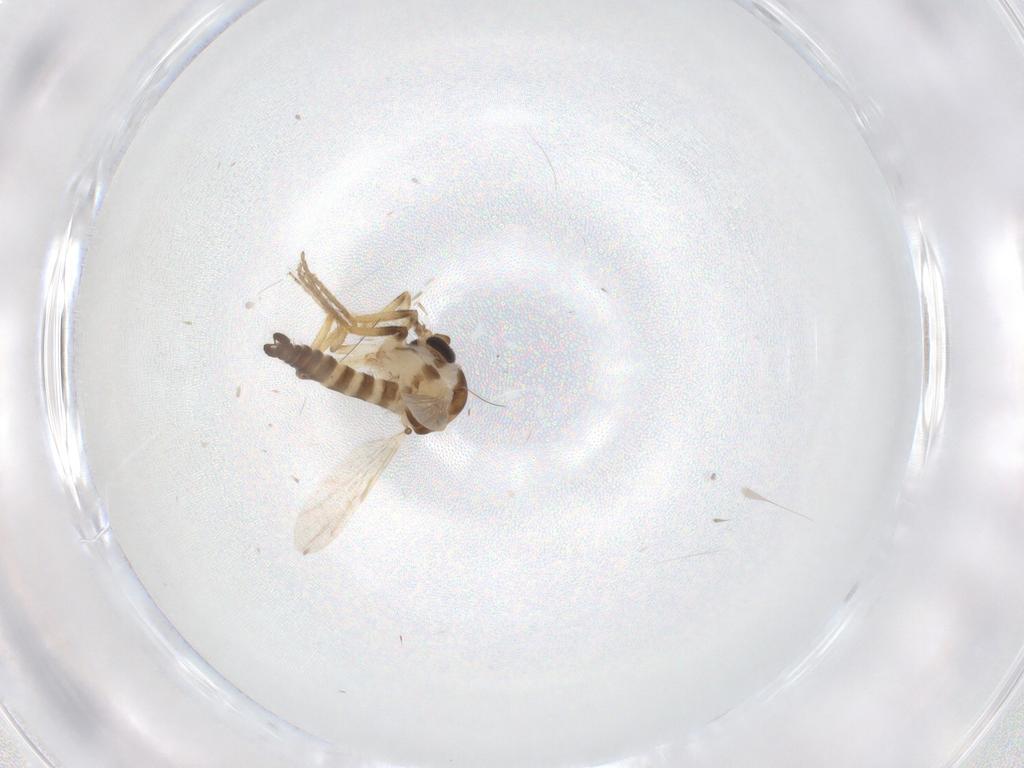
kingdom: Animalia
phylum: Arthropoda
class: Insecta
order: Diptera
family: Ceratopogonidae
